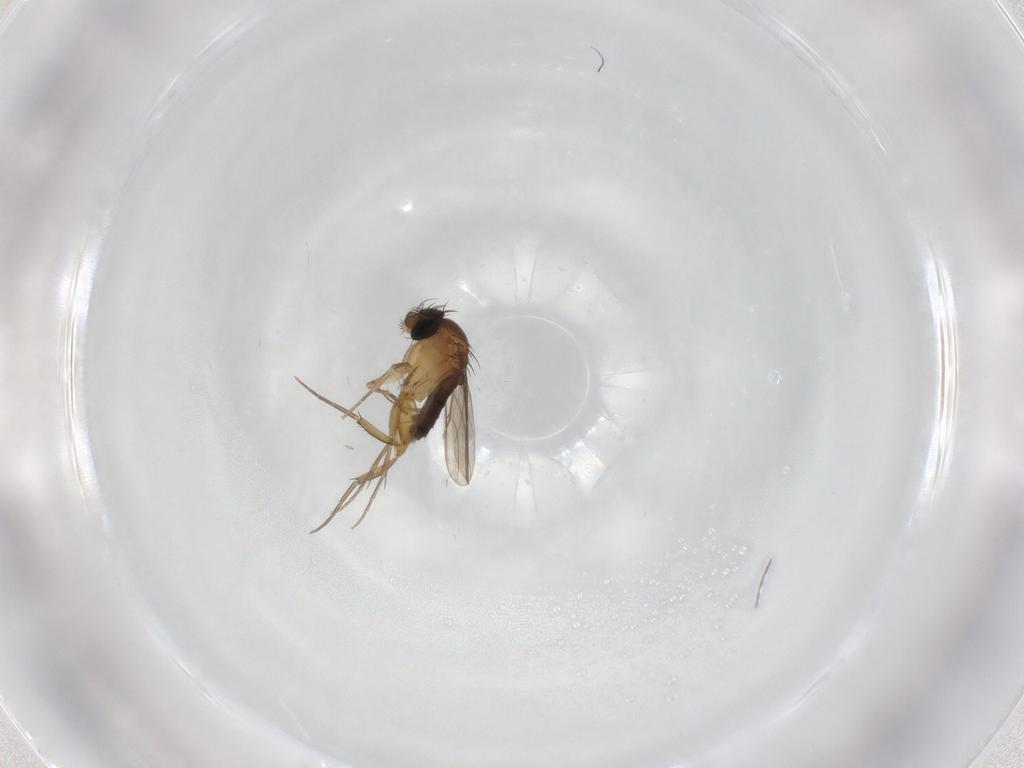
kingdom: Animalia
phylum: Arthropoda
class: Insecta
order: Diptera
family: Phoridae
